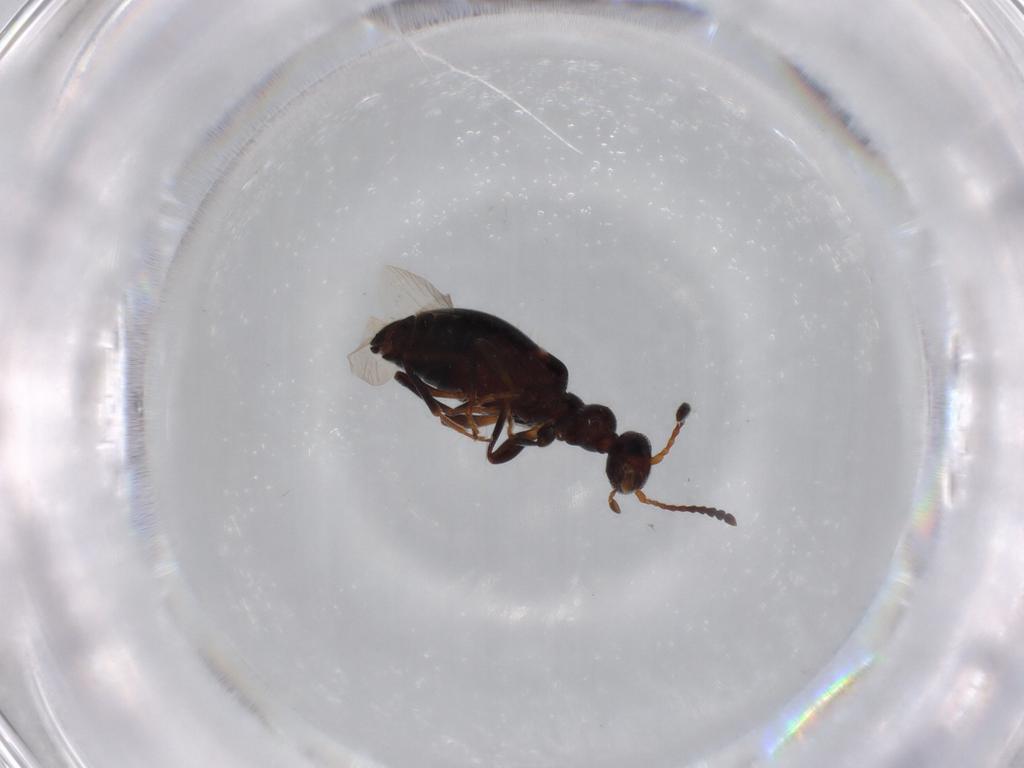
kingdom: Animalia
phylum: Arthropoda
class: Insecta
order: Coleoptera
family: Anthicidae
